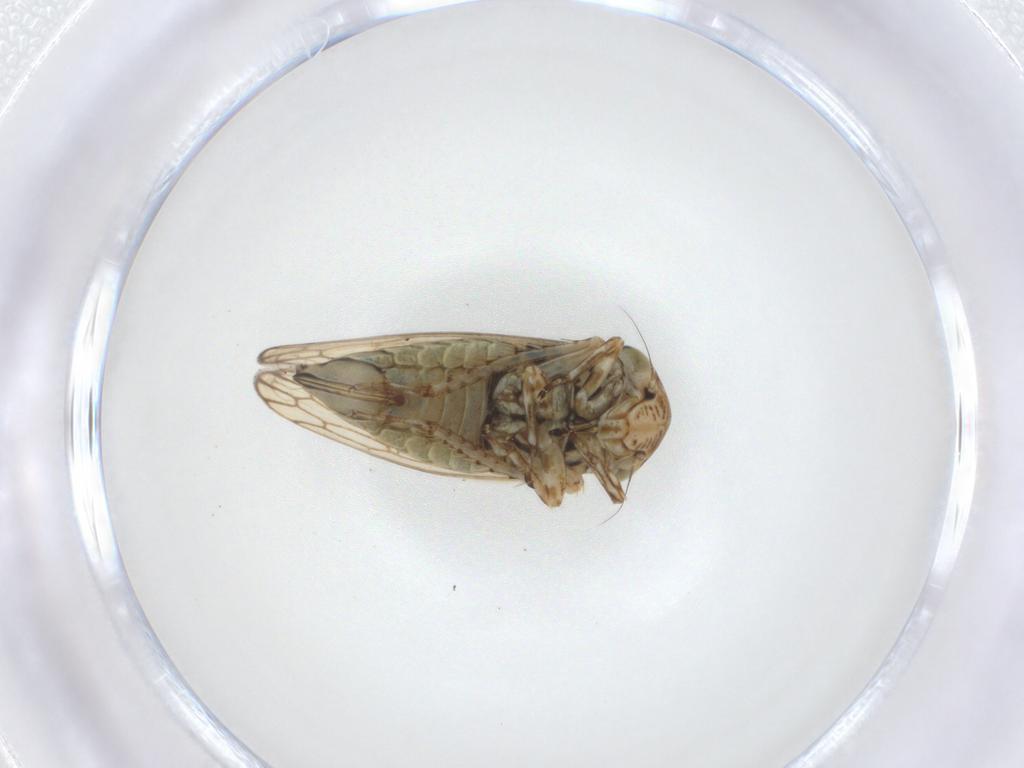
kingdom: Animalia
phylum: Arthropoda
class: Insecta
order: Hemiptera
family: Cicadellidae
